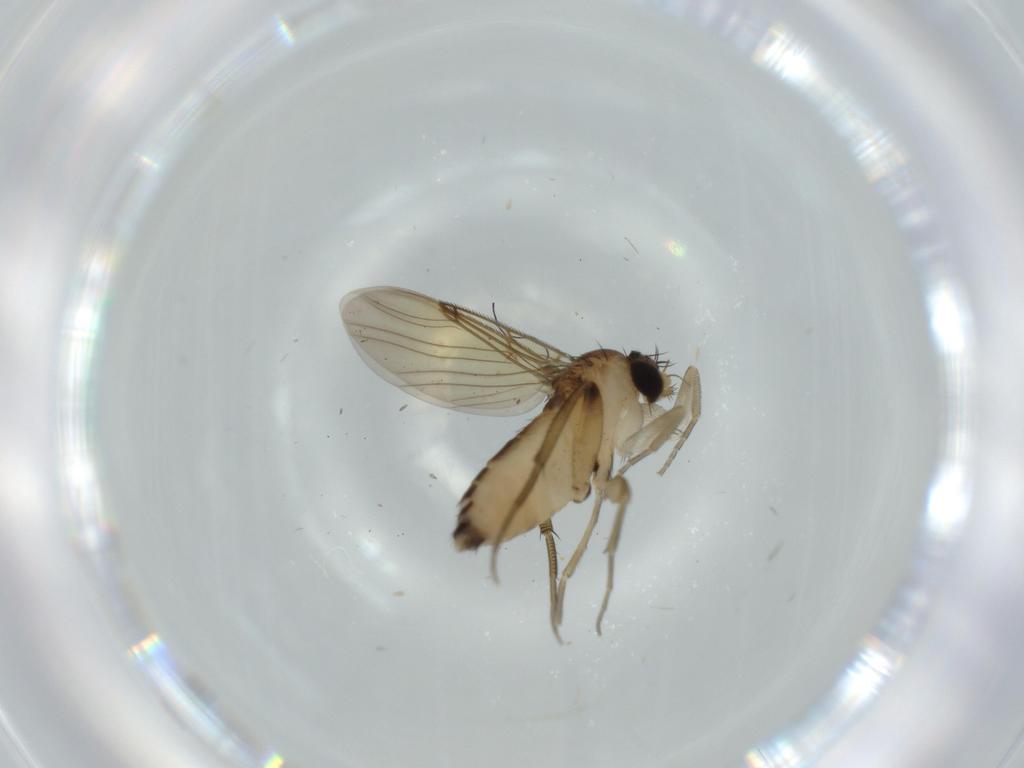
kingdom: Animalia
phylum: Arthropoda
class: Insecta
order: Diptera
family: Phoridae
